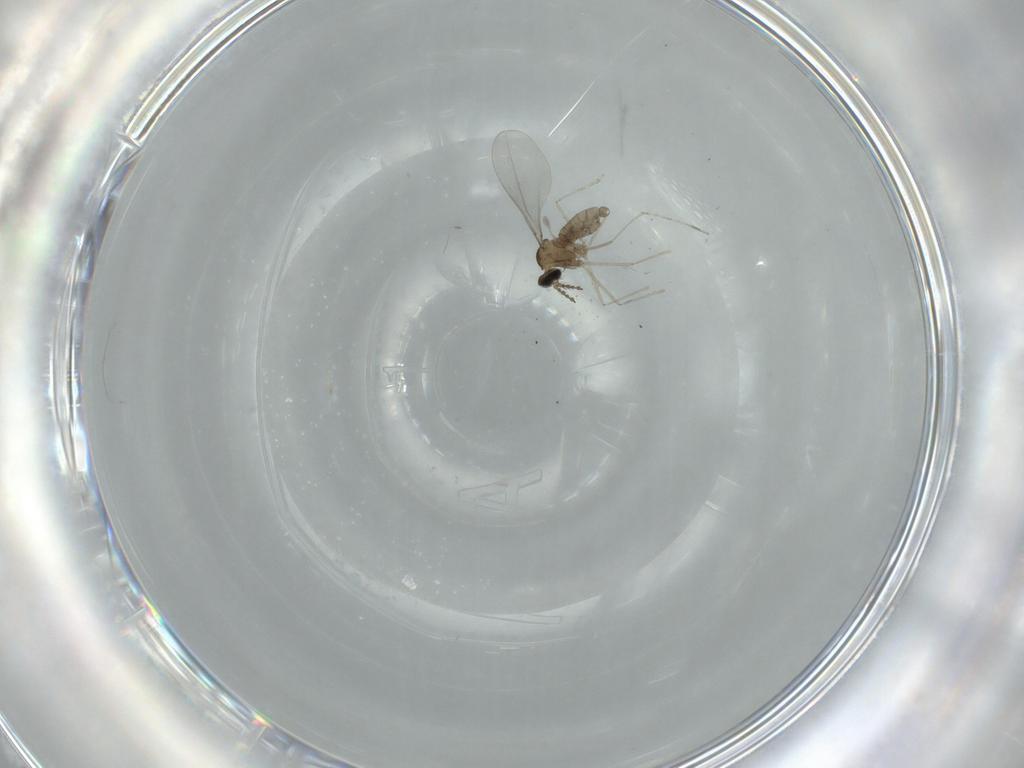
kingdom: Animalia
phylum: Arthropoda
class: Insecta
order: Diptera
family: Cecidomyiidae
